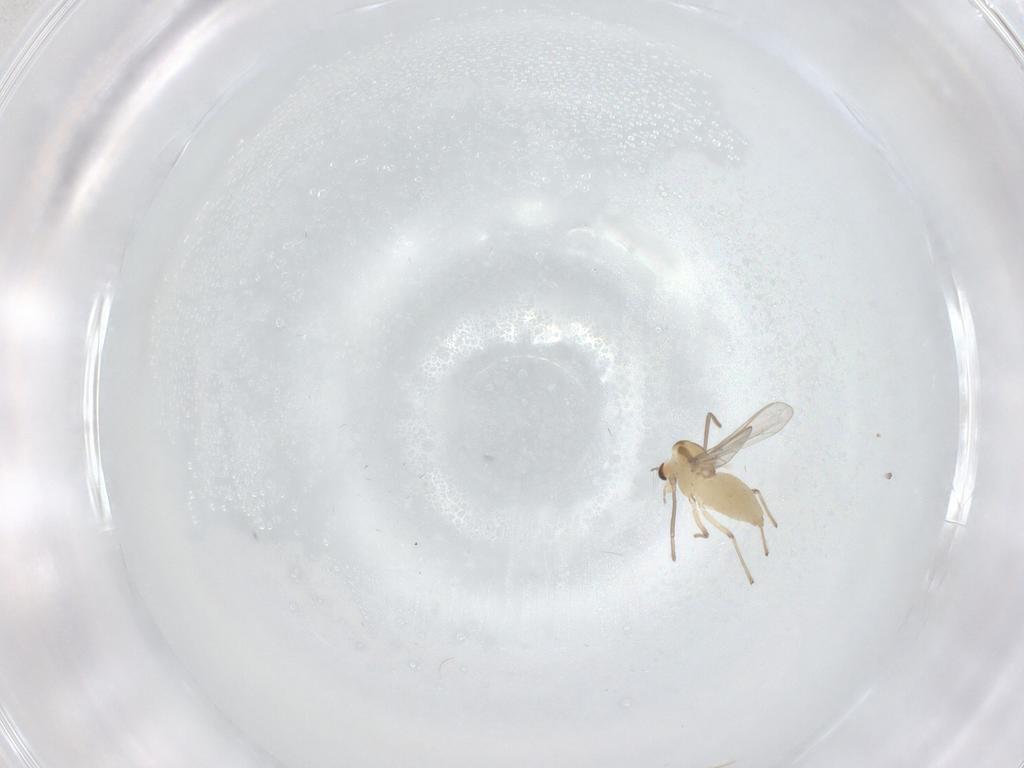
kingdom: Animalia
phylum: Arthropoda
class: Insecta
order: Diptera
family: Chironomidae
